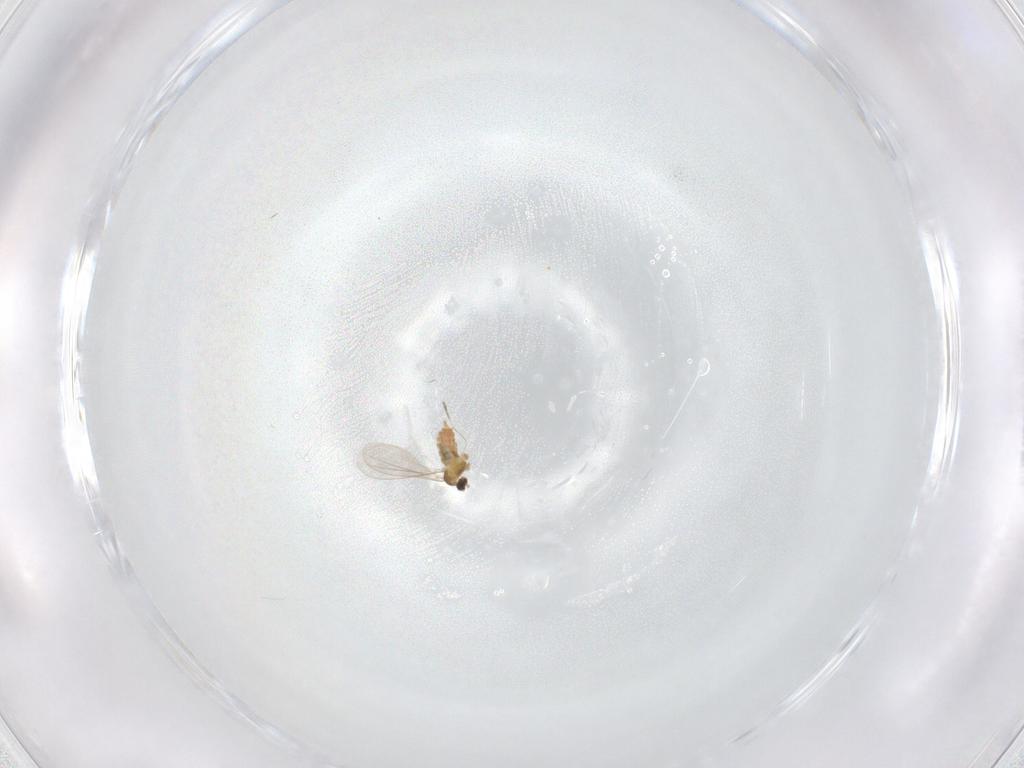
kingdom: Animalia
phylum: Arthropoda
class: Insecta
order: Diptera
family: Cecidomyiidae
